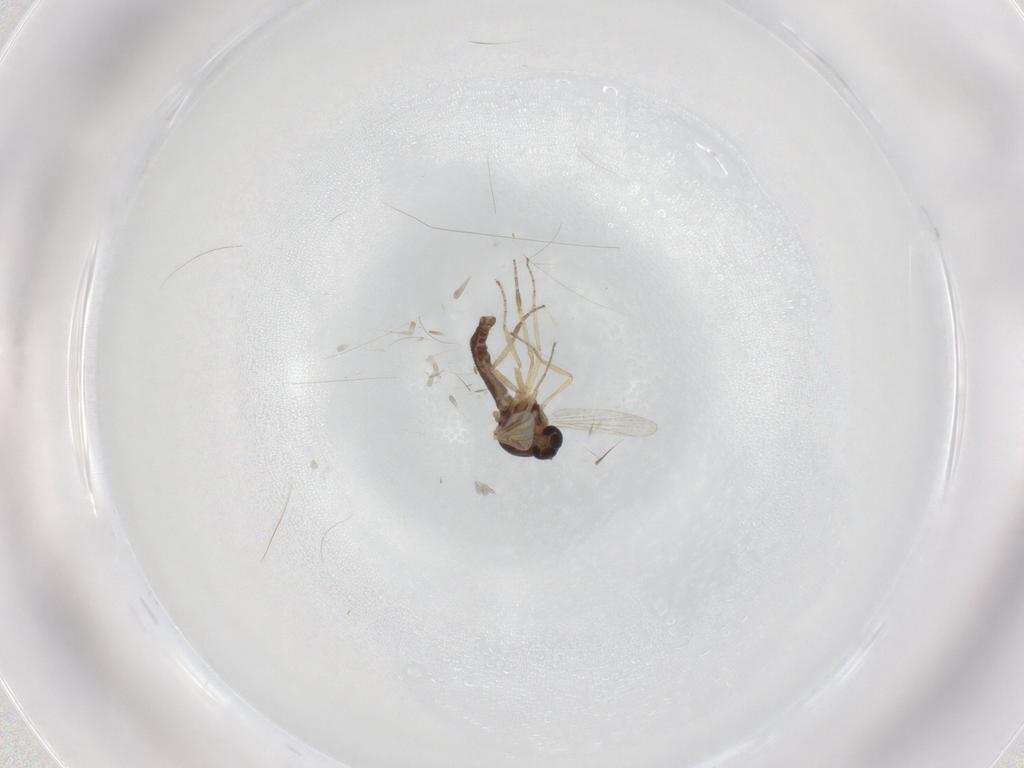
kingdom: Animalia
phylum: Arthropoda
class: Insecta
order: Diptera
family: Ceratopogonidae
